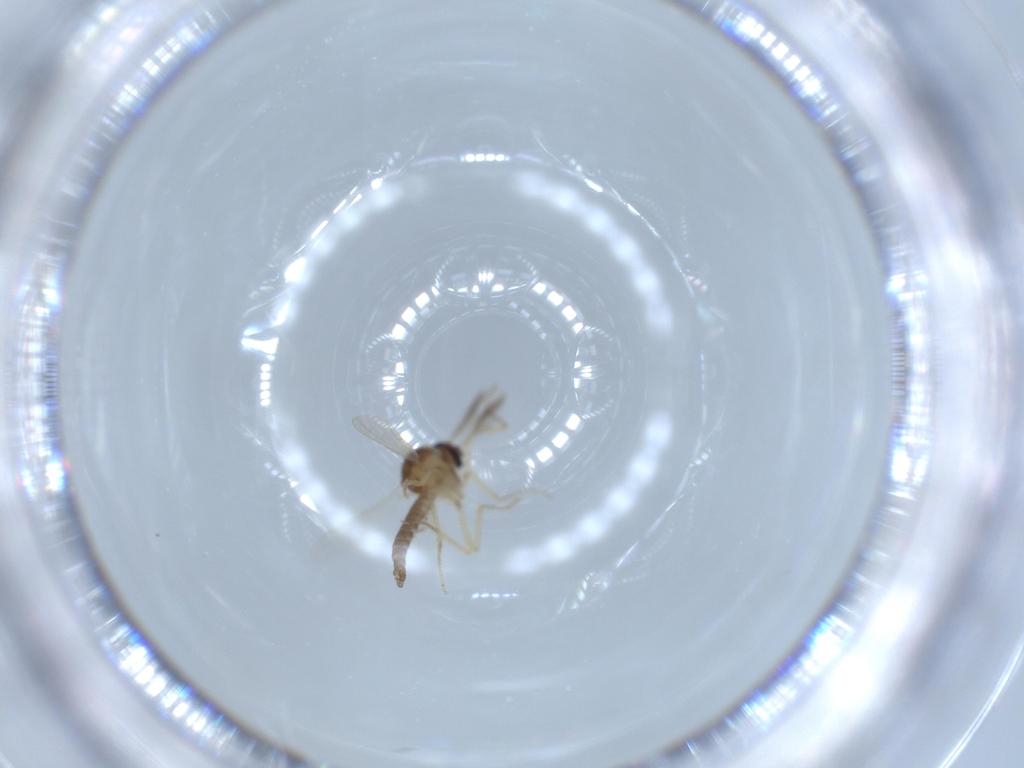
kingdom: Animalia
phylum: Arthropoda
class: Insecta
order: Diptera
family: Ceratopogonidae
